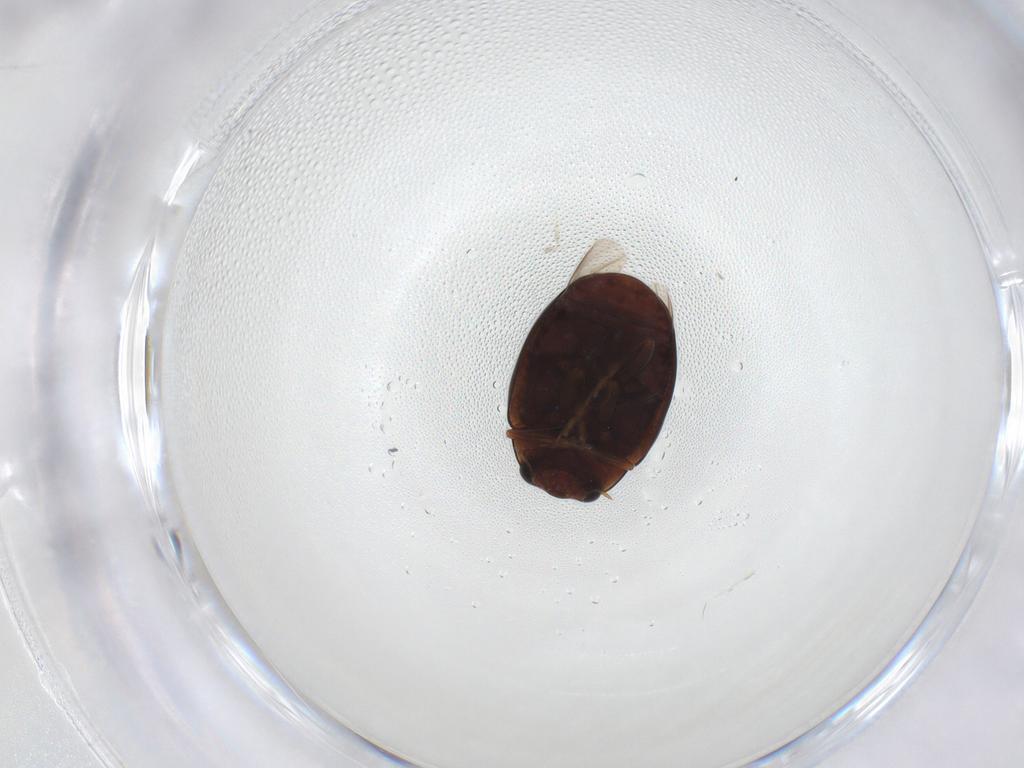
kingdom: Animalia
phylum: Arthropoda
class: Insecta
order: Coleoptera
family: Coccinellidae
